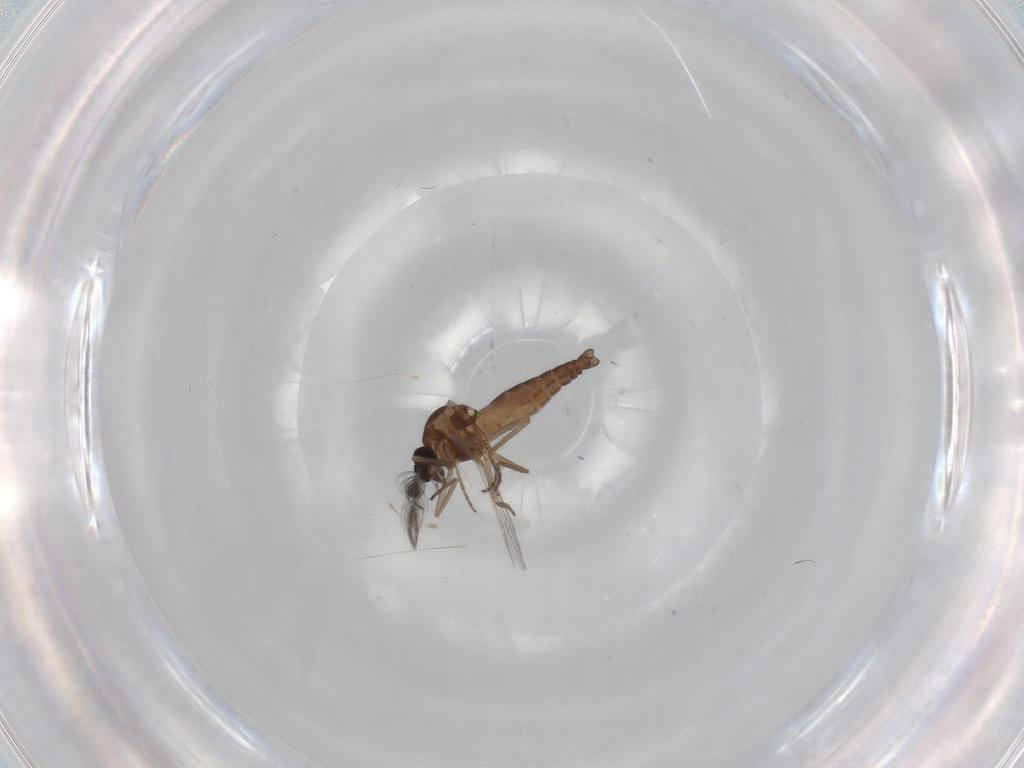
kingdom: Animalia
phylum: Arthropoda
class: Insecta
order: Diptera
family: Ceratopogonidae
